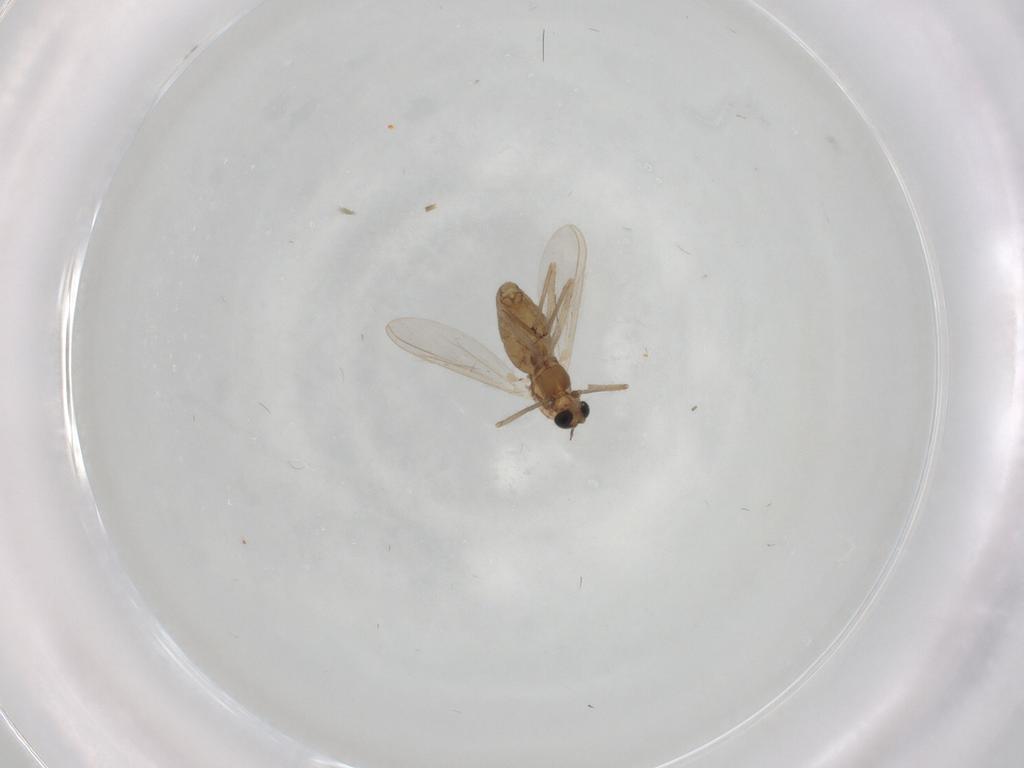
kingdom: Animalia
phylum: Arthropoda
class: Insecta
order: Diptera
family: Chironomidae
